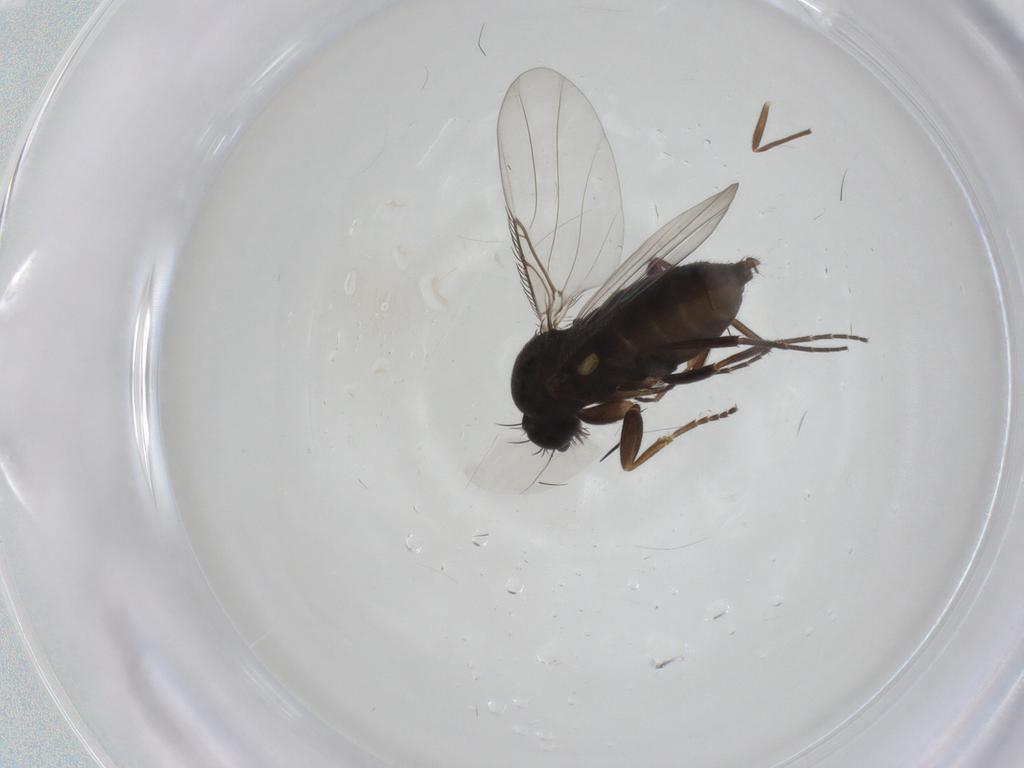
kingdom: Animalia
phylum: Arthropoda
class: Insecta
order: Diptera
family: Phoridae
